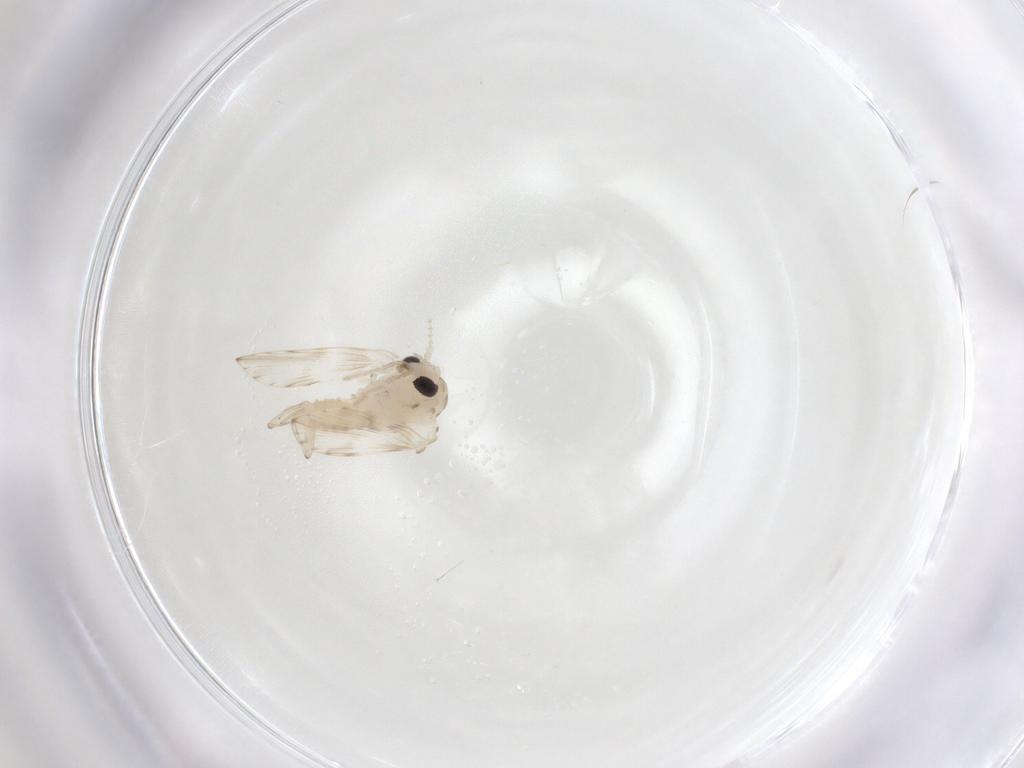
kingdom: Animalia
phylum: Arthropoda
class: Insecta
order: Diptera
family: Psychodidae
